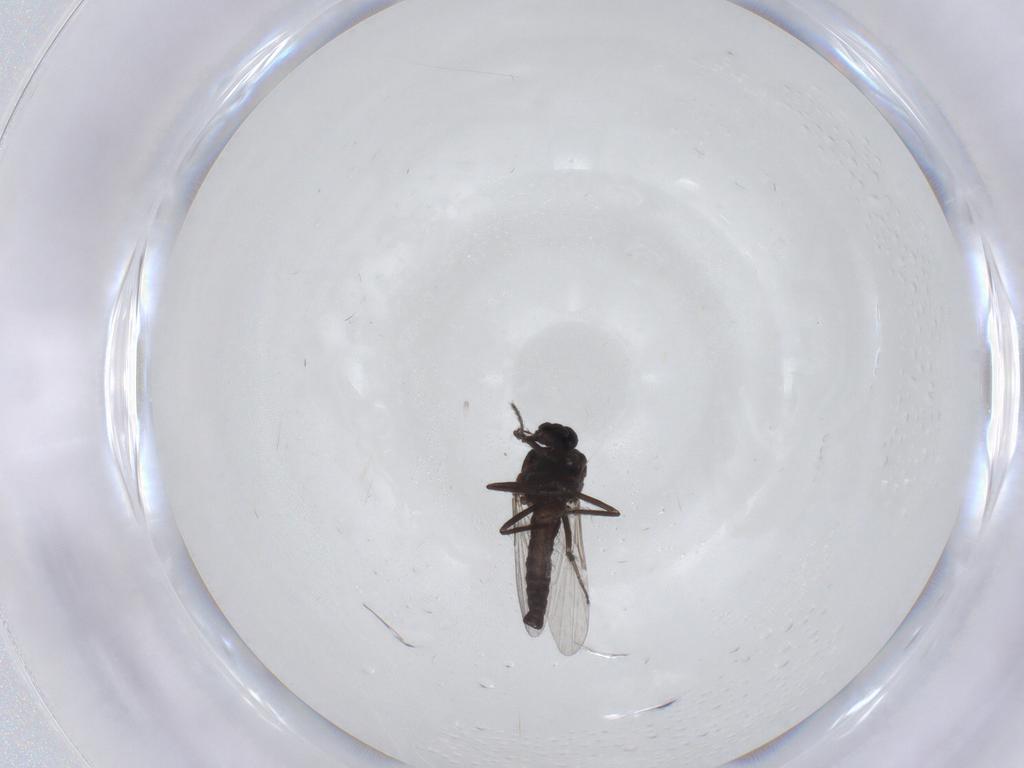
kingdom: Animalia
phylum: Arthropoda
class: Insecta
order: Diptera
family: Ceratopogonidae
